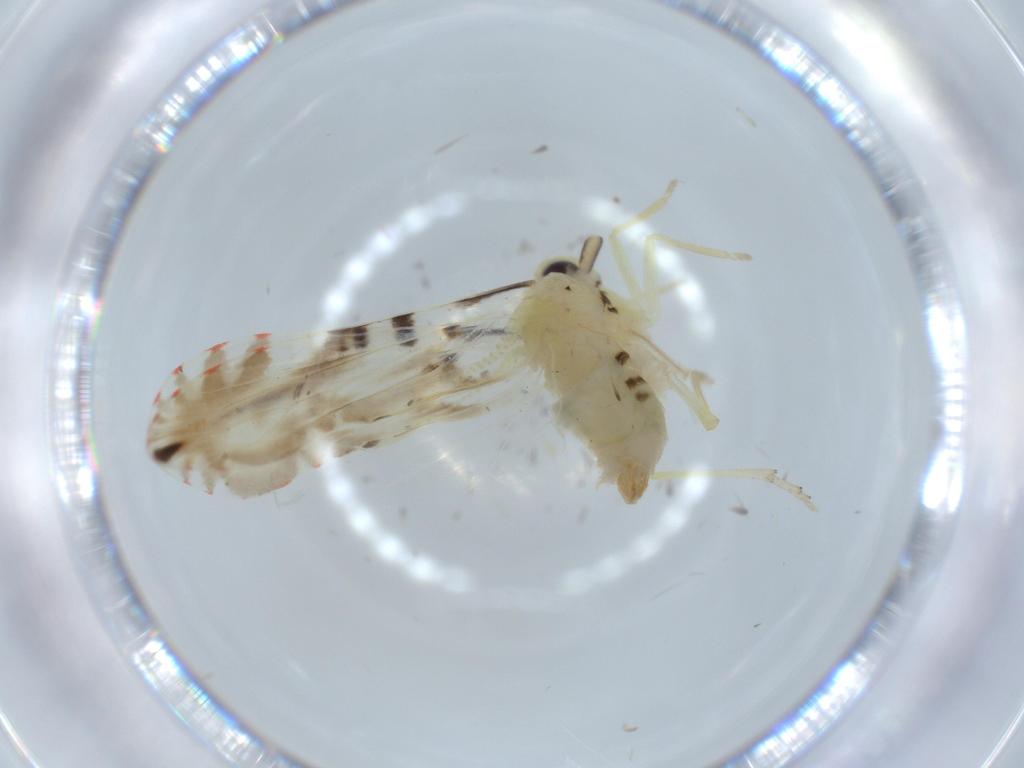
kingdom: Animalia
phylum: Arthropoda
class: Insecta
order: Hemiptera
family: Derbidae
